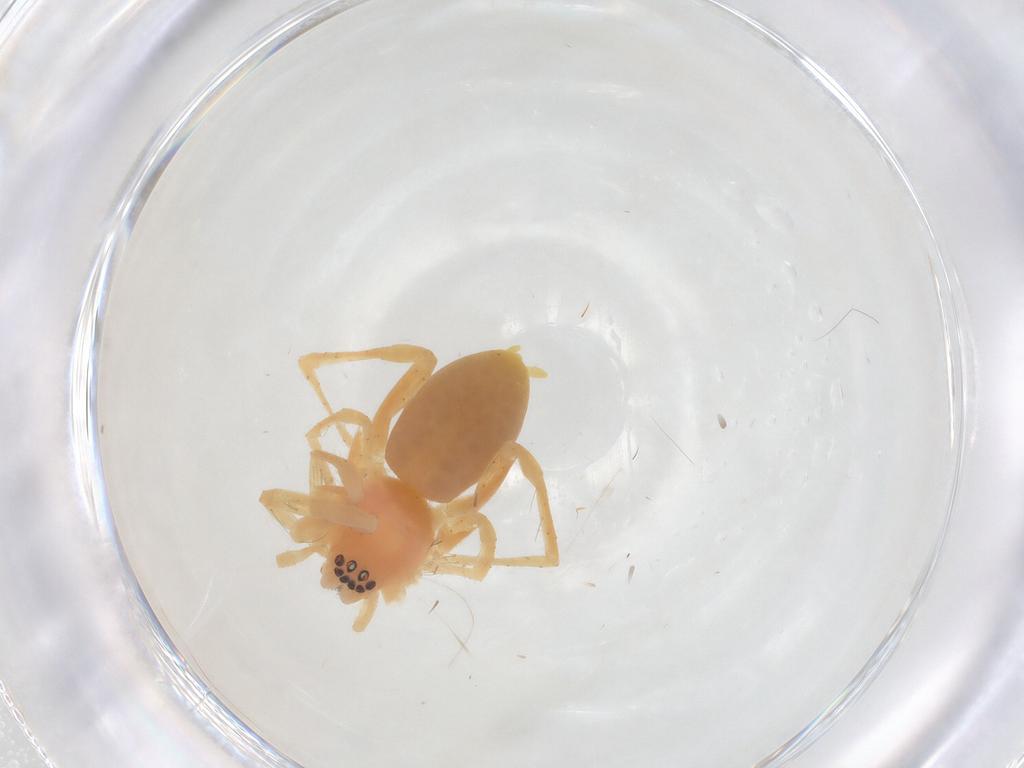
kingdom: Animalia
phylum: Arthropoda
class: Arachnida
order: Araneae
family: Anyphaenidae
